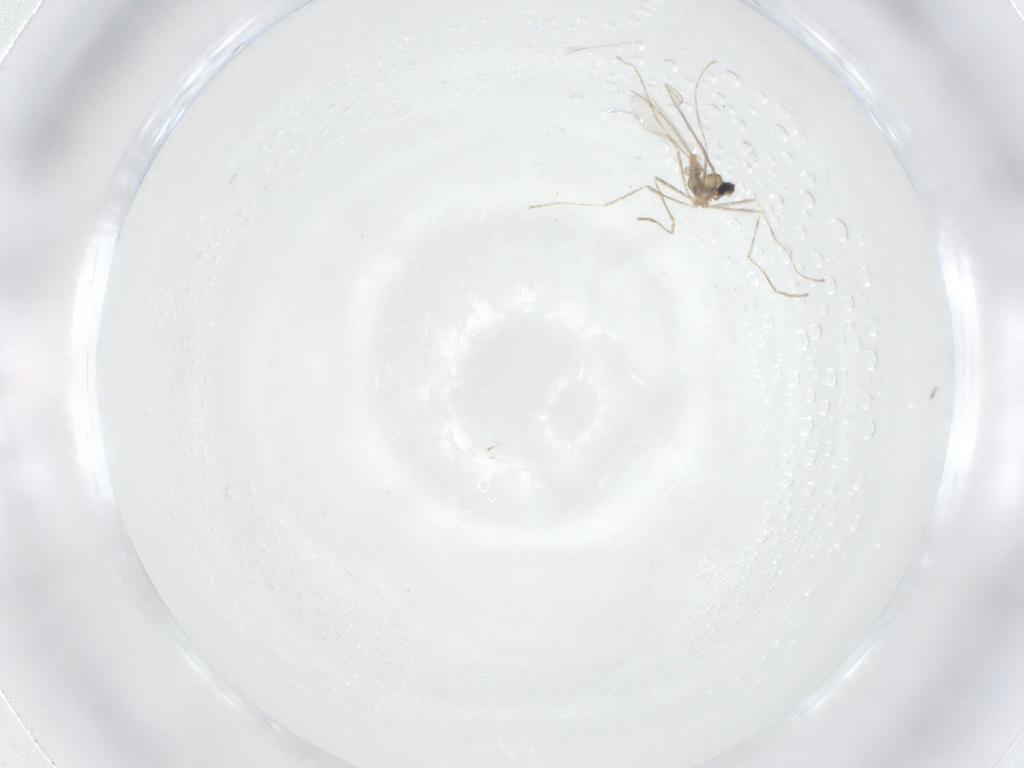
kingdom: Animalia
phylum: Arthropoda
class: Insecta
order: Diptera
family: Cecidomyiidae
